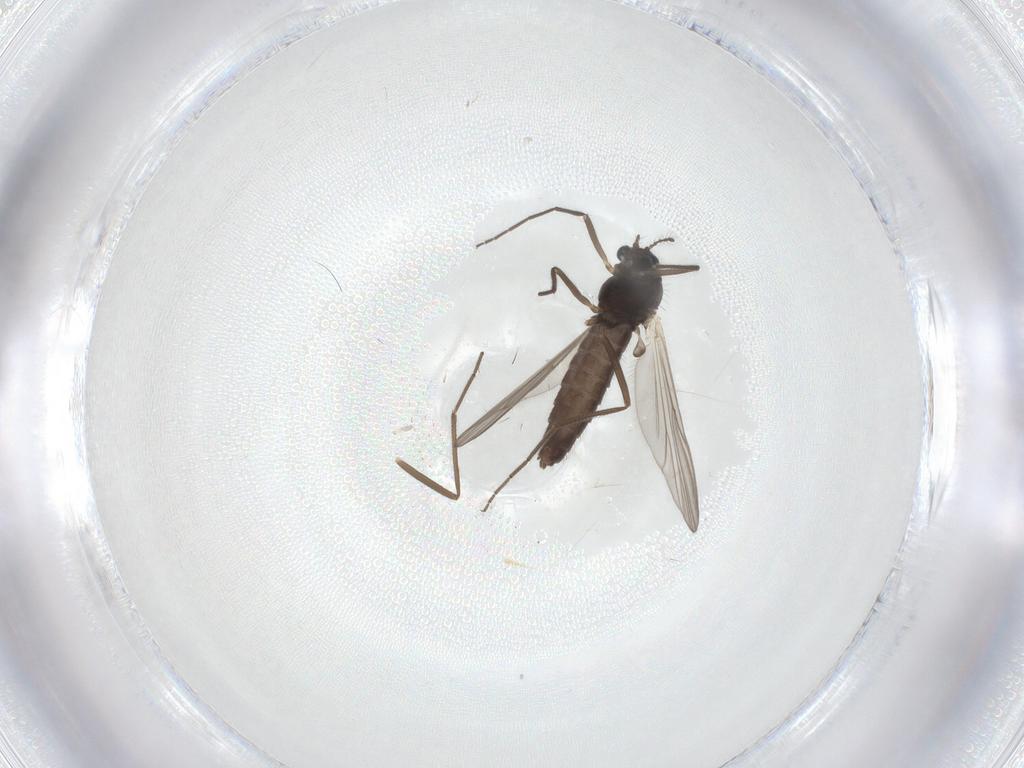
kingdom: Animalia
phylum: Arthropoda
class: Insecta
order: Diptera
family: Chironomidae
